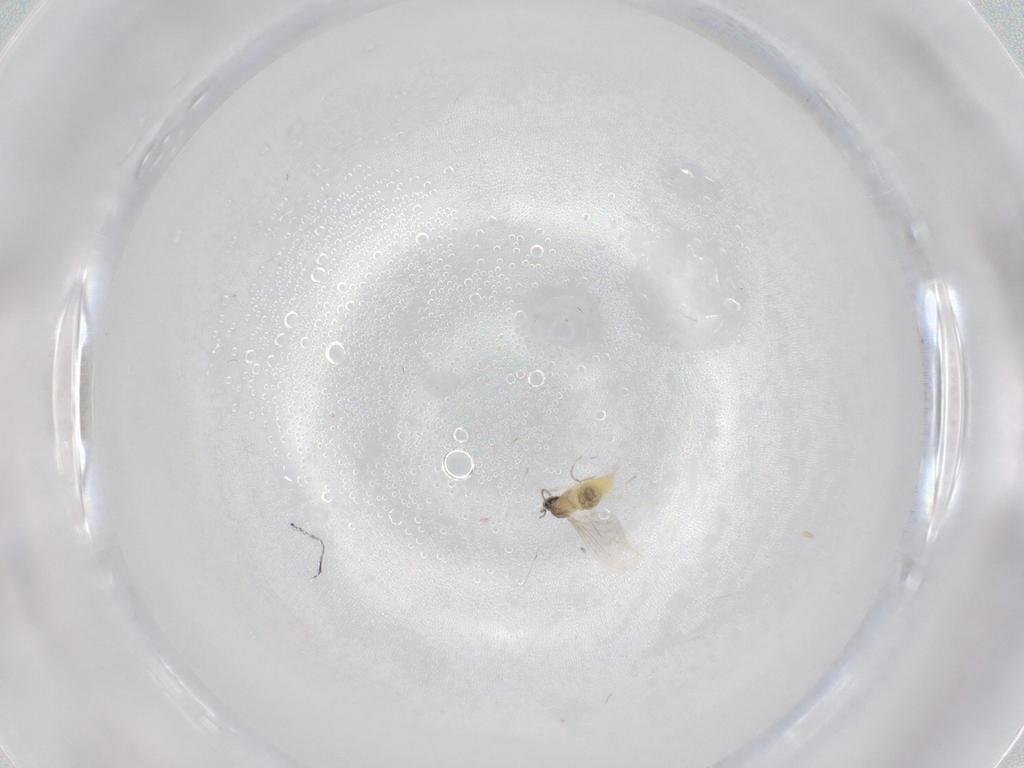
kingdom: Animalia
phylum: Arthropoda
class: Insecta
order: Diptera
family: Cecidomyiidae
